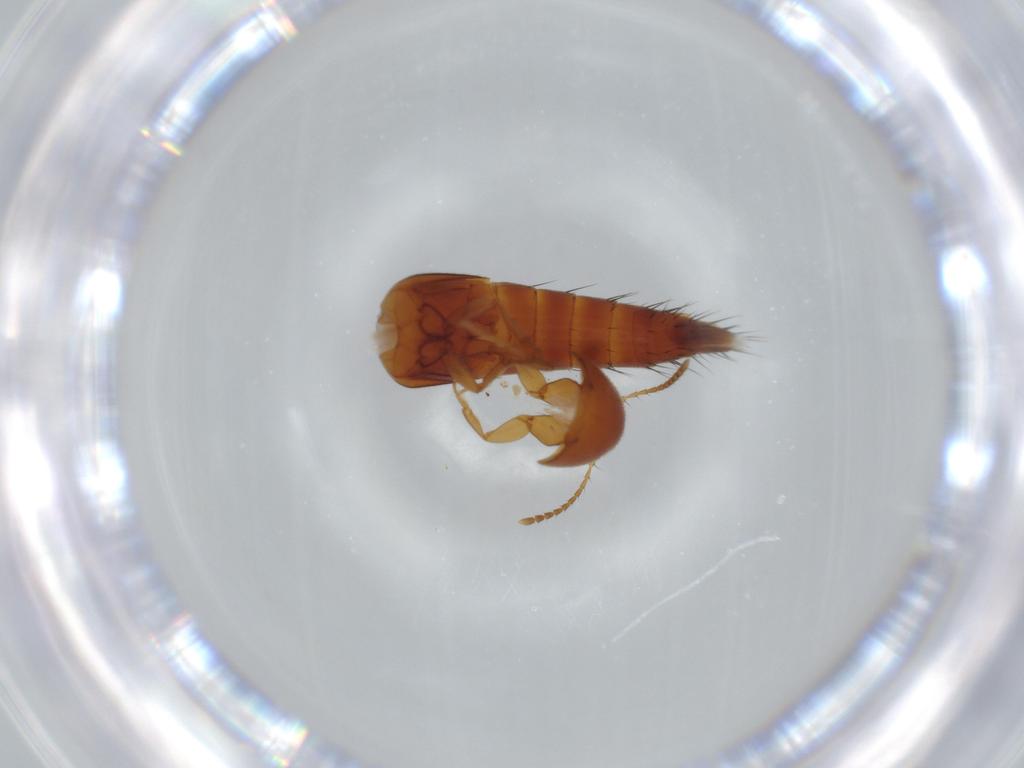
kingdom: Animalia
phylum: Arthropoda
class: Insecta
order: Coleoptera
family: Staphylinidae
